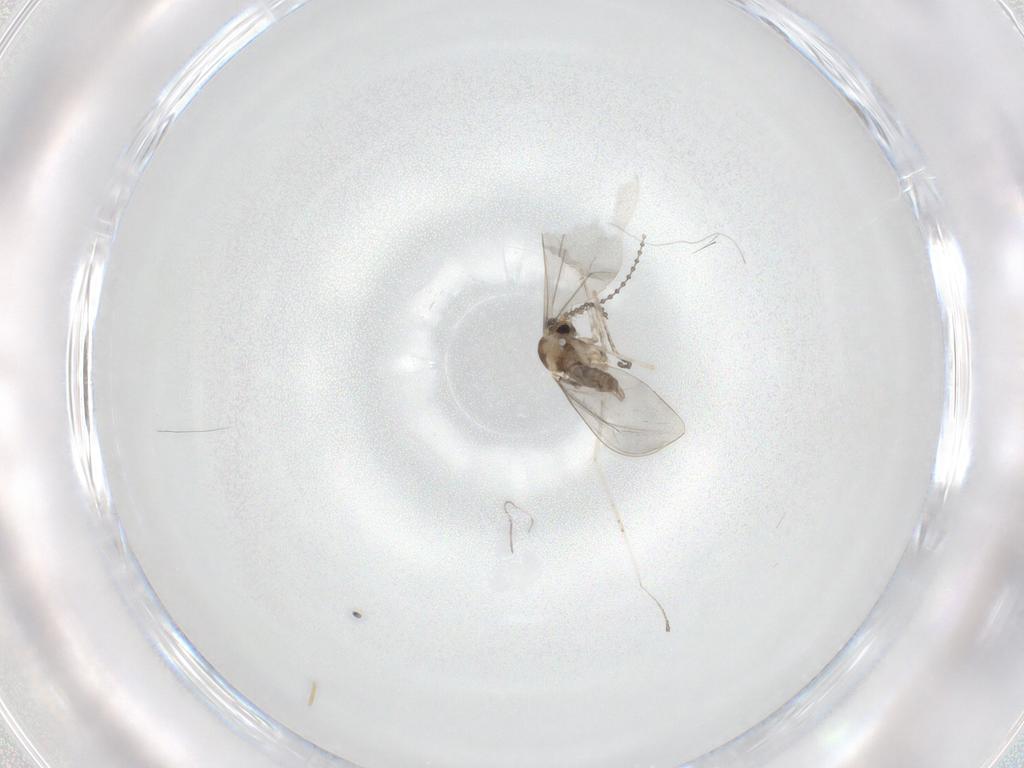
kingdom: Animalia
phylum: Arthropoda
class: Insecta
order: Diptera
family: Cecidomyiidae
